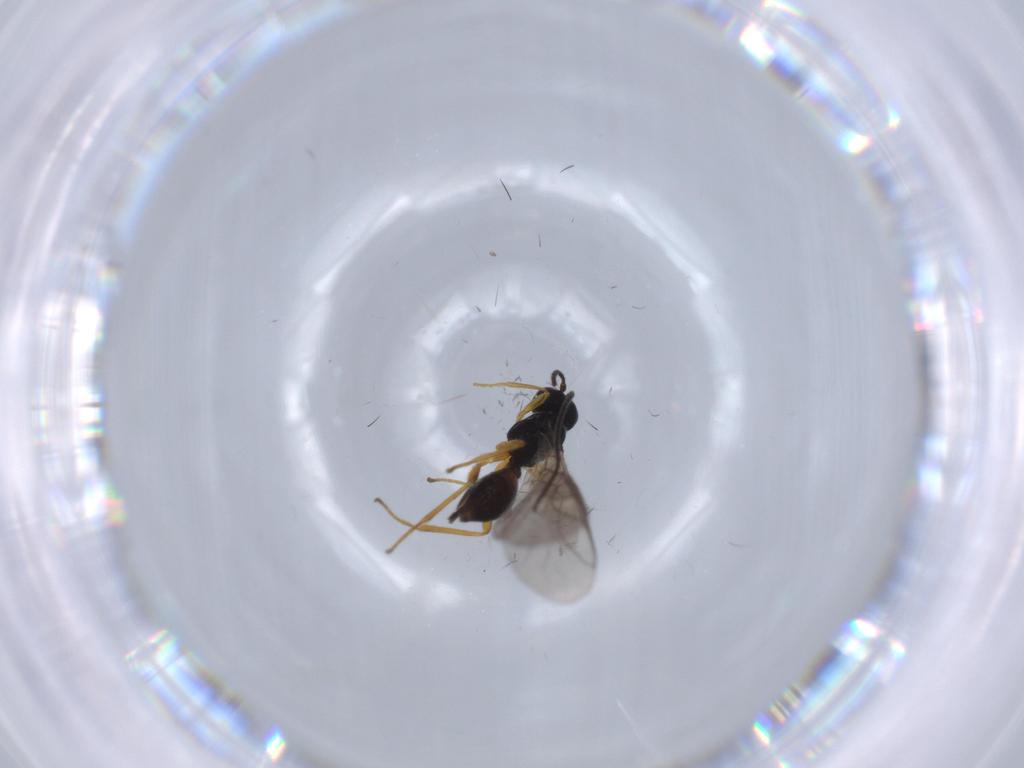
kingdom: Animalia
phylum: Arthropoda
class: Insecta
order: Hymenoptera
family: Braconidae
